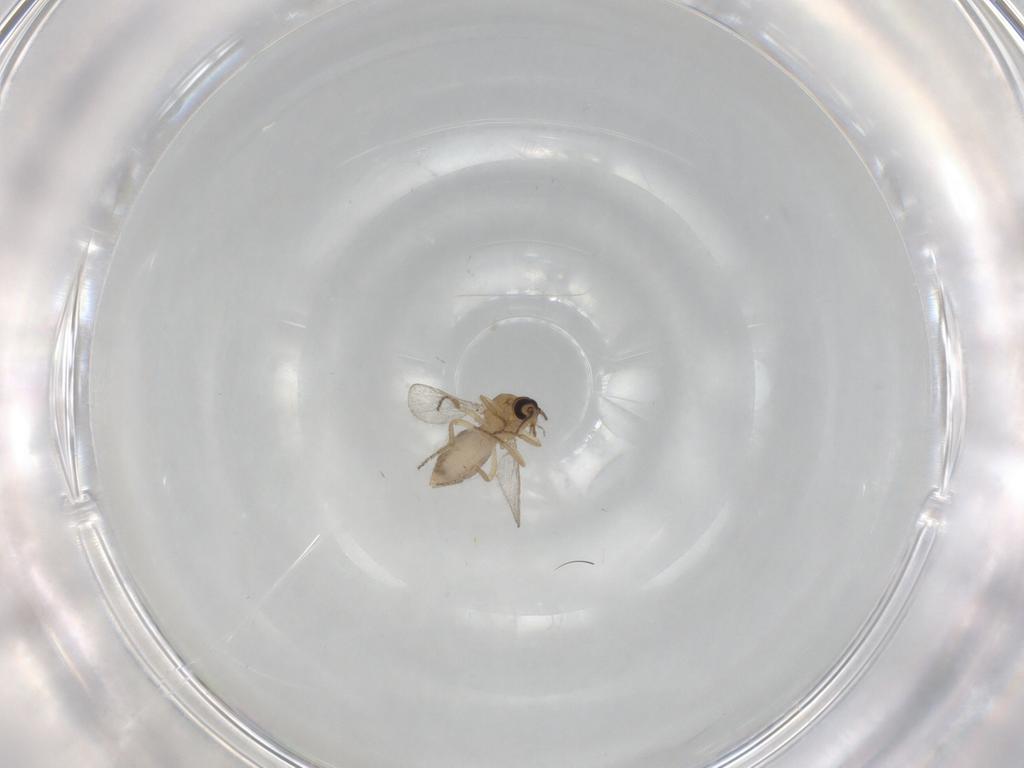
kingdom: Animalia
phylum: Arthropoda
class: Insecta
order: Diptera
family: Ceratopogonidae
